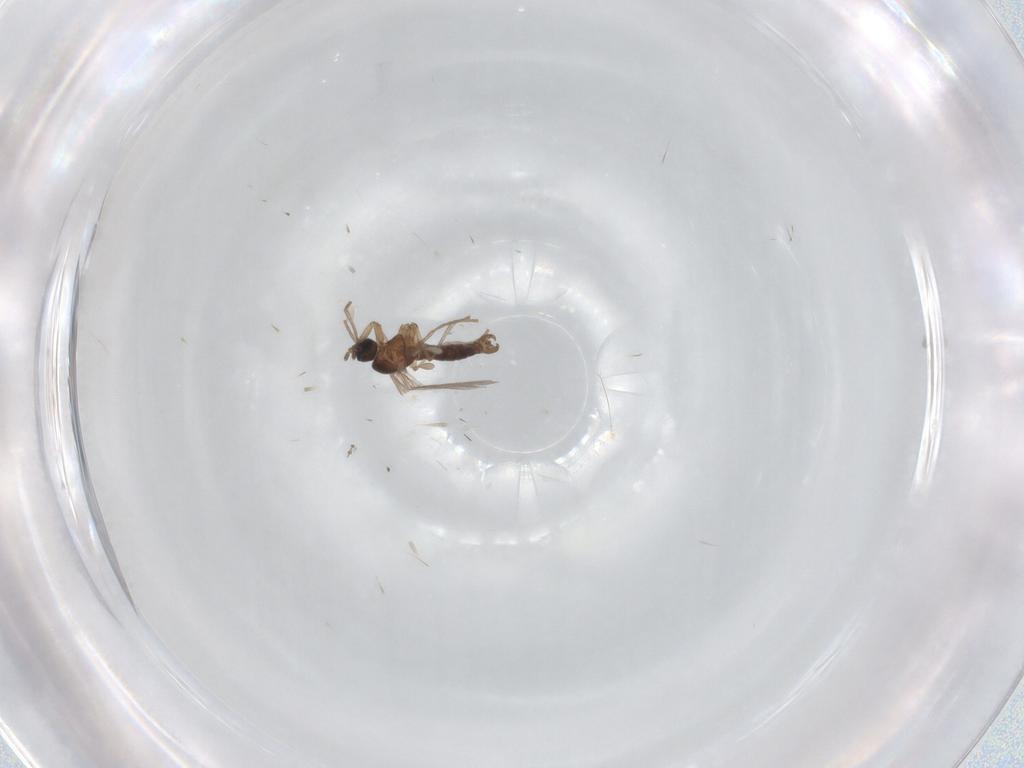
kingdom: Animalia
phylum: Arthropoda
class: Insecta
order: Diptera
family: Sciaridae
